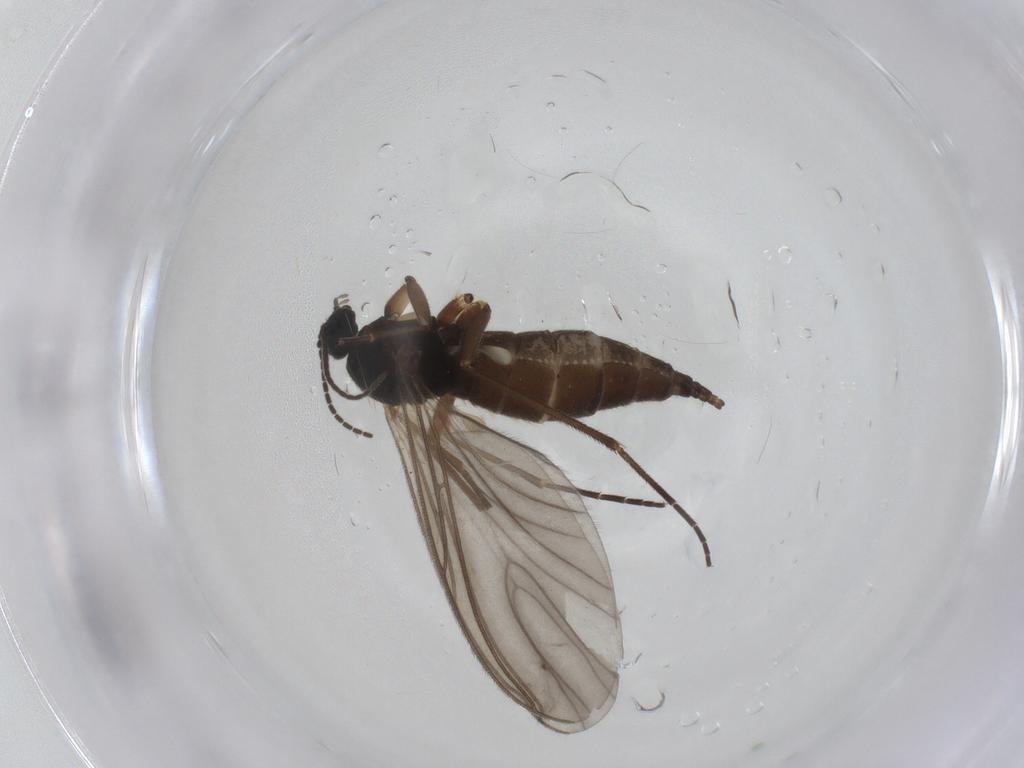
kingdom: Animalia
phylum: Arthropoda
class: Insecta
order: Diptera
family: Sciaridae
